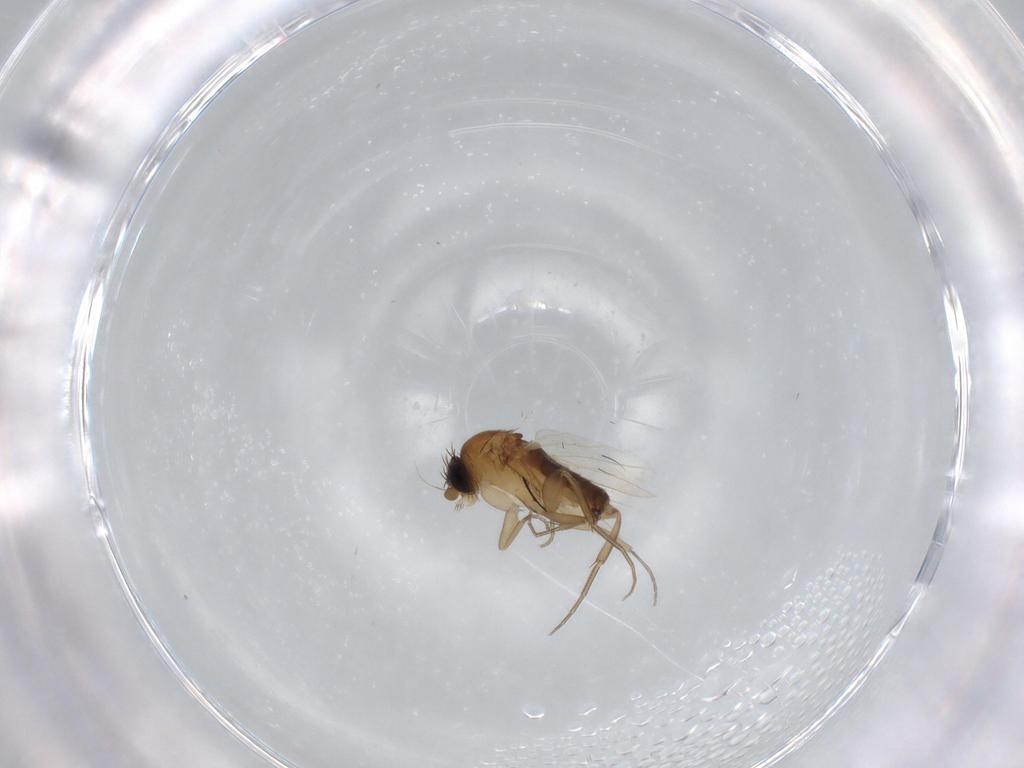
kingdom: Animalia
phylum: Arthropoda
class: Insecta
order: Diptera
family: Phoridae
